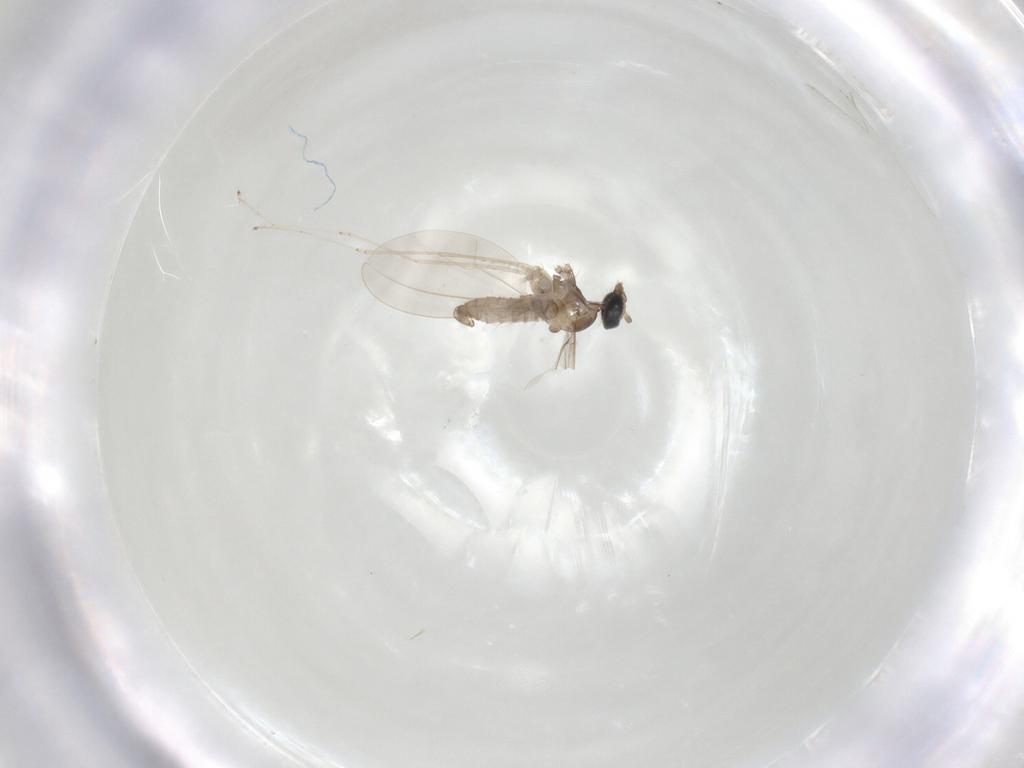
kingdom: Animalia
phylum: Arthropoda
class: Insecta
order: Diptera
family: Cecidomyiidae
